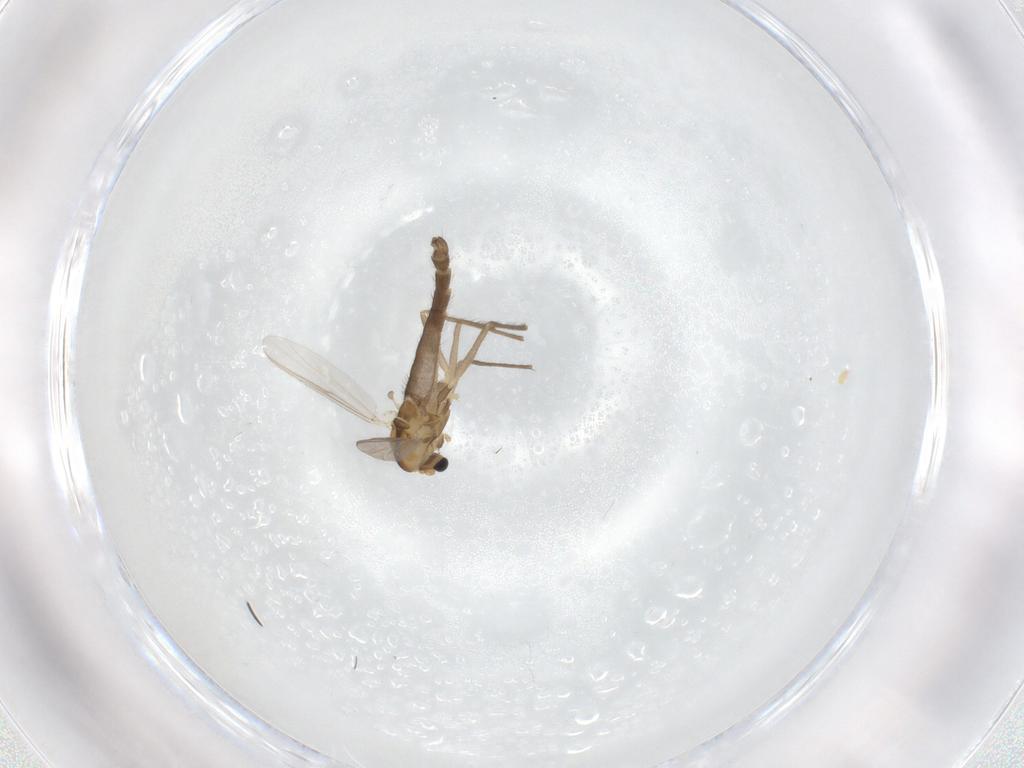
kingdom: Animalia
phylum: Arthropoda
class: Insecta
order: Diptera
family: Chironomidae
